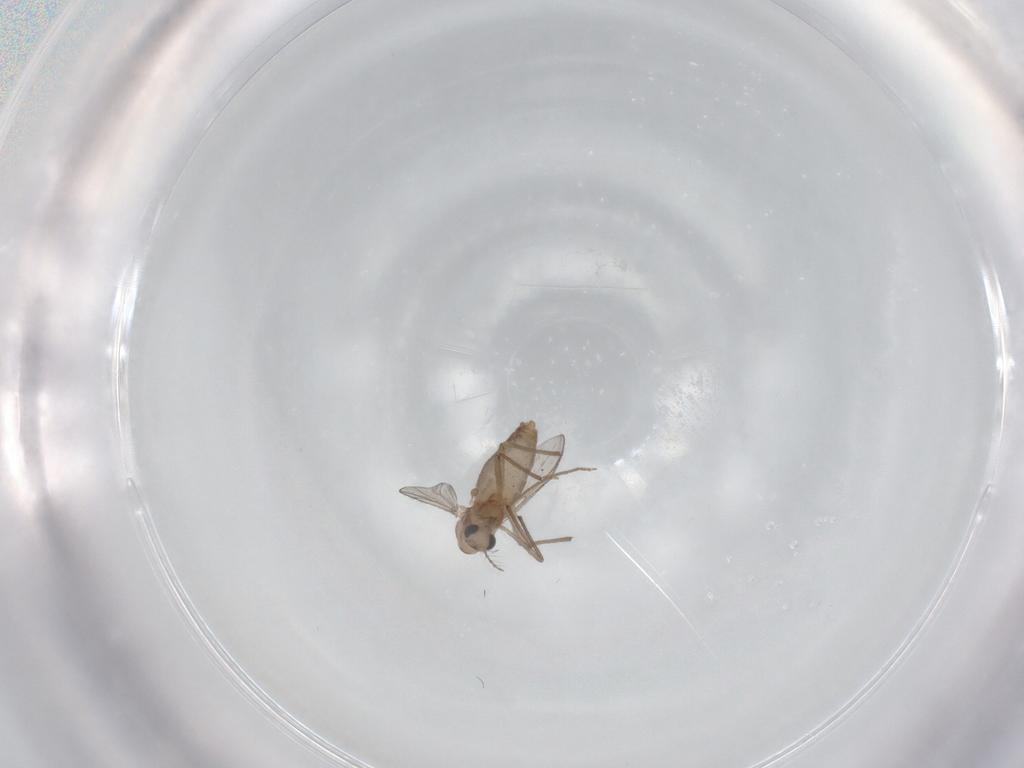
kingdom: Animalia
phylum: Arthropoda
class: Insecta
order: Diptera
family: Chironomidae
